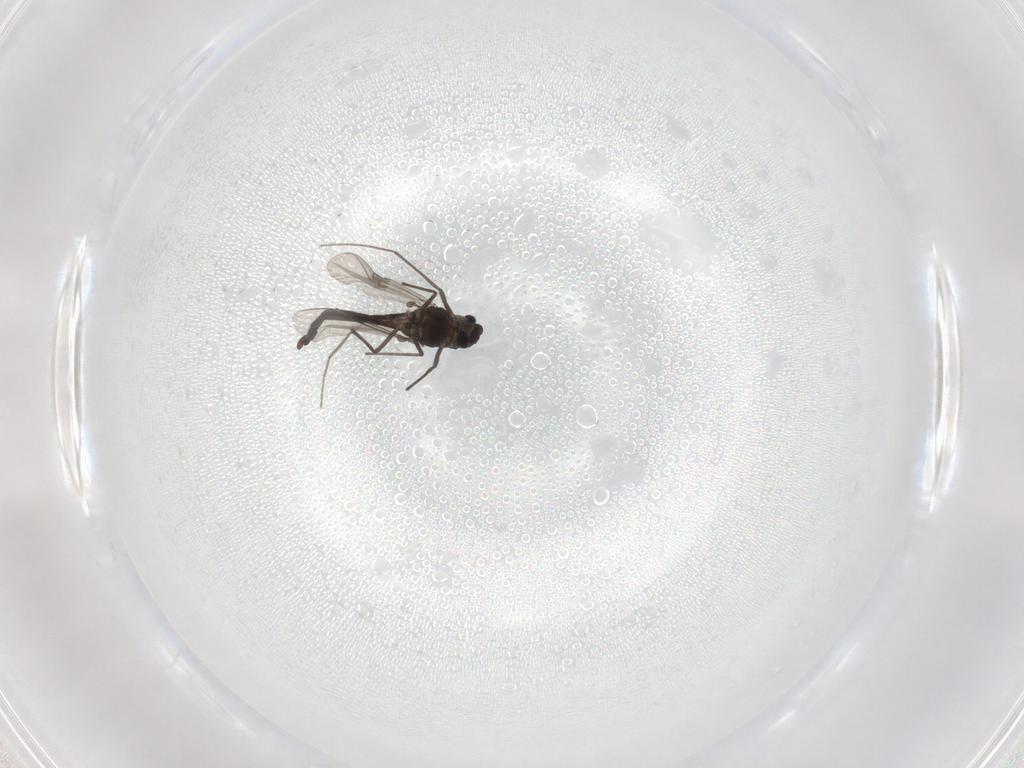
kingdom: Animalia
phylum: Arthropoda
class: Insecta
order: Diptera
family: Chironomidae
